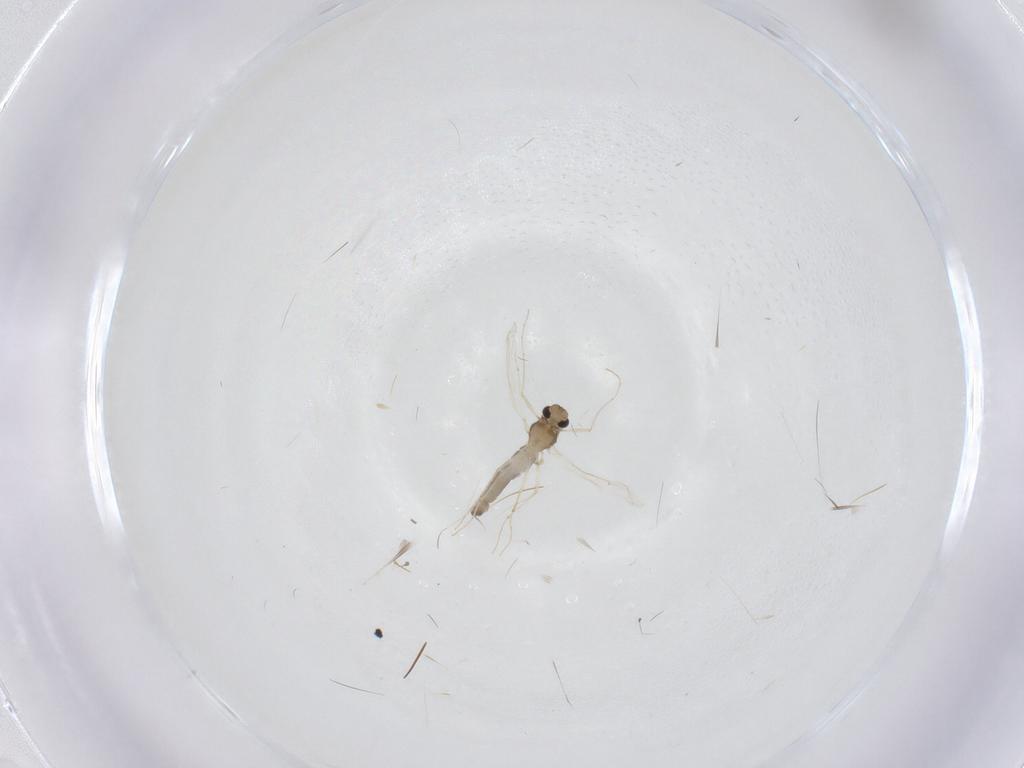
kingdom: Animalia
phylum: Arthropoda
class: Insecta
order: Diptera
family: Chironomidae
